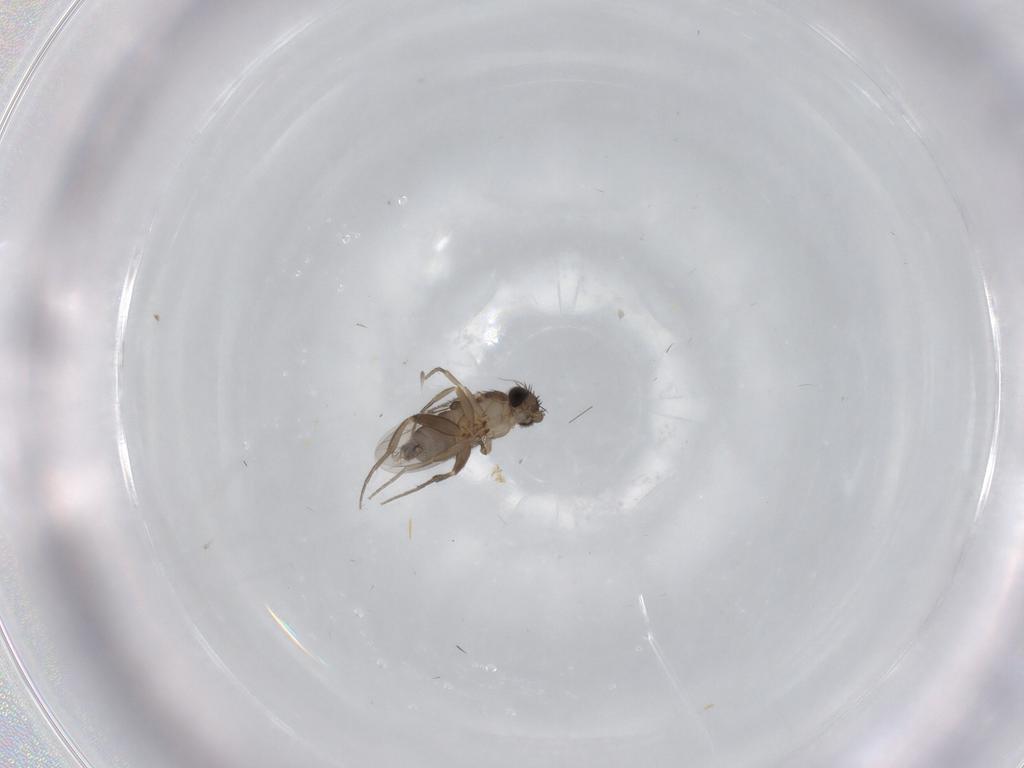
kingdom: Animalia
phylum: Arthropoda
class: Insecta
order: Diptera
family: Phoridae
